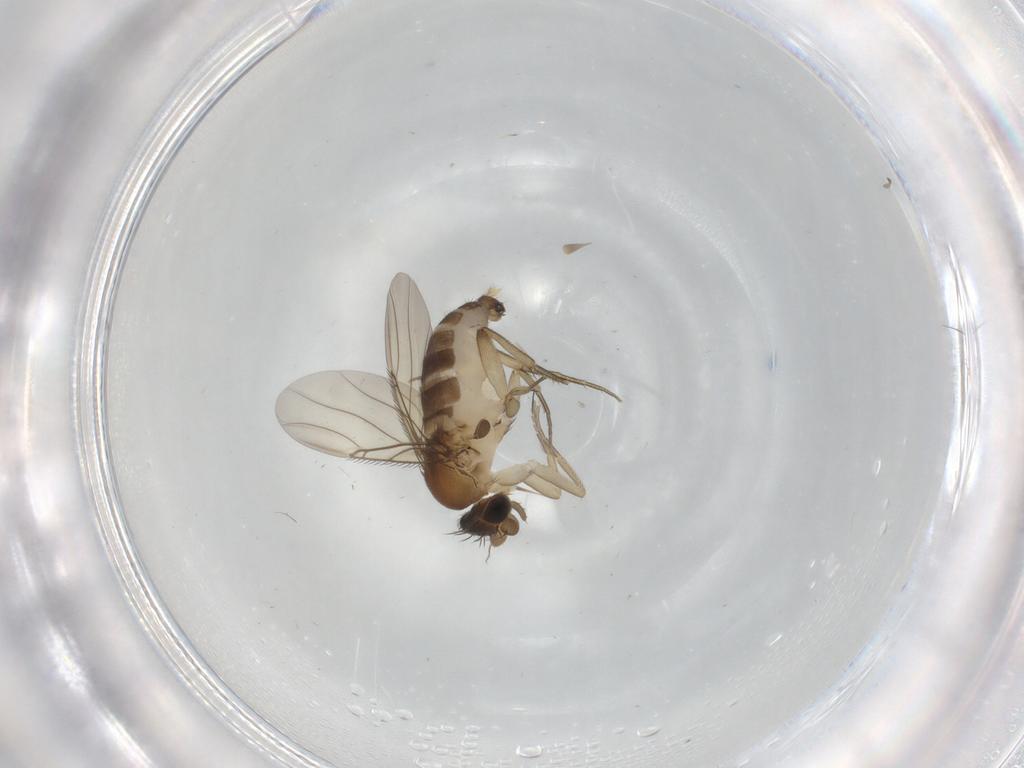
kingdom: Animalia
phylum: Arthropoda
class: Insecta
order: Diptera
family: Phoridae
